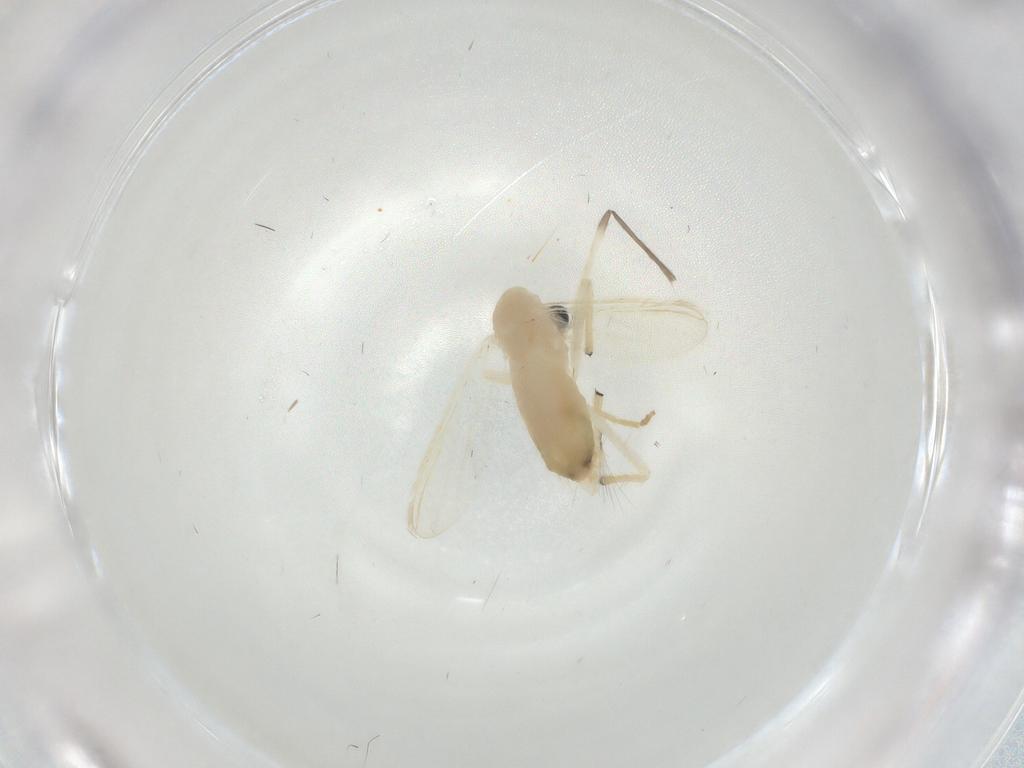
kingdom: Animalia
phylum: Arthropoda
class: Insecta
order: Diptera
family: Chironomidae
